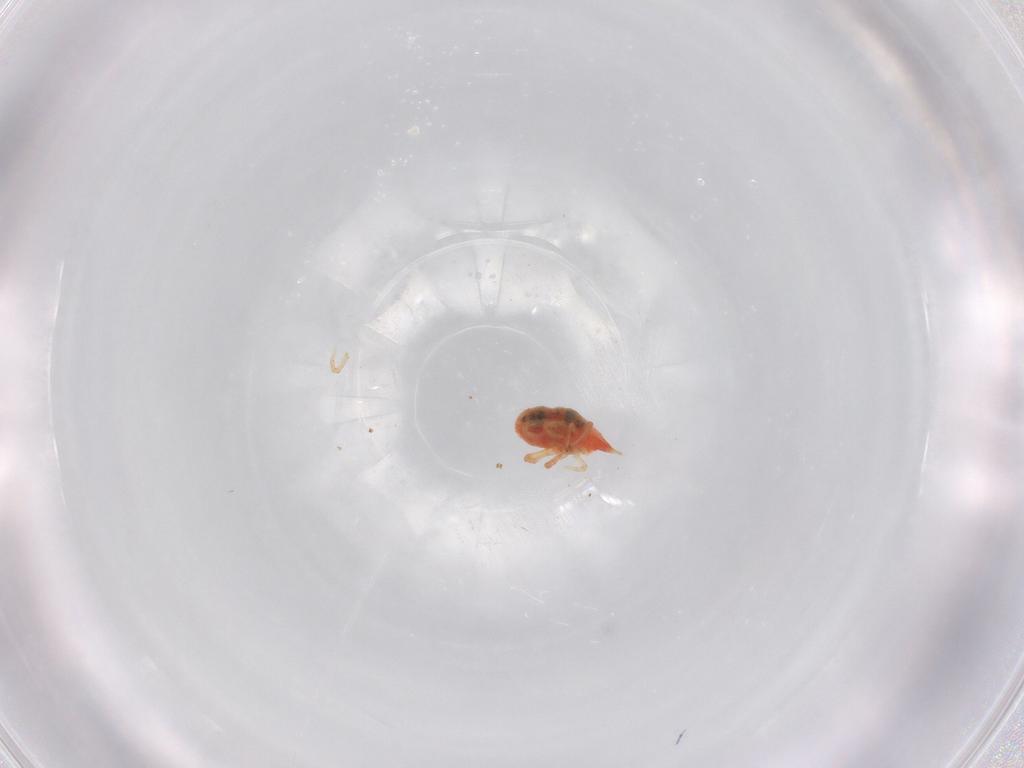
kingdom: Animalia
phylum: Arthropoda
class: Arachnida
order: Trombidiformes
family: Bdellidae
